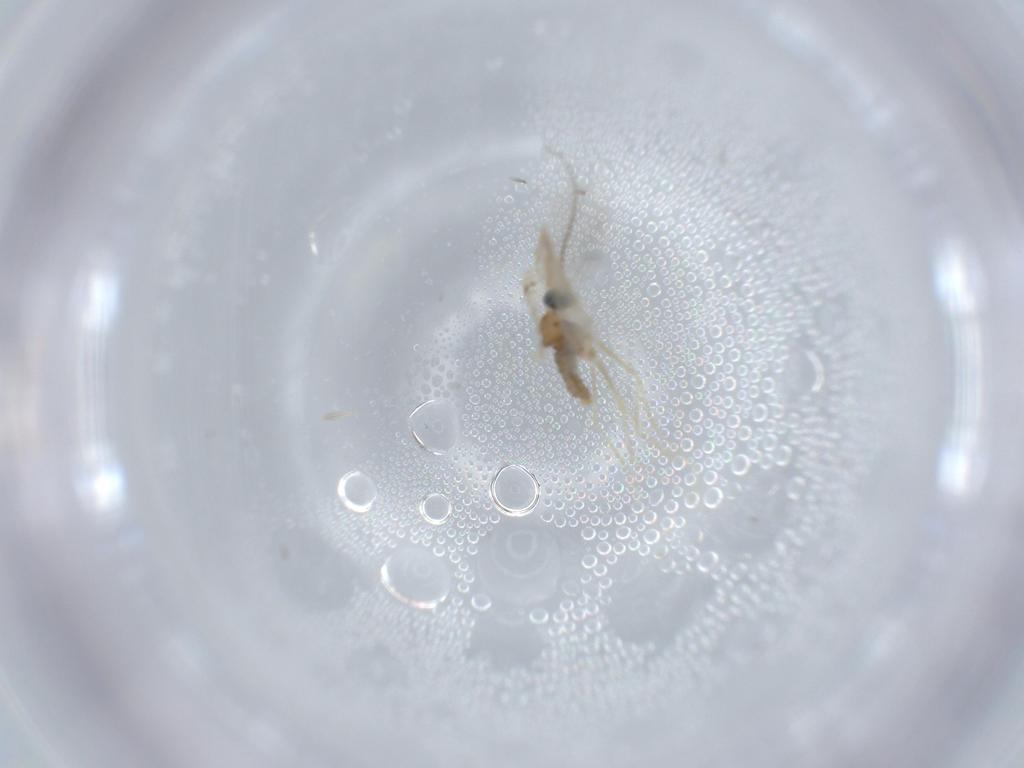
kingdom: Animalia
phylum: Arthropoda
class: Insecta
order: Diptera
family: Cecidomyiidae
